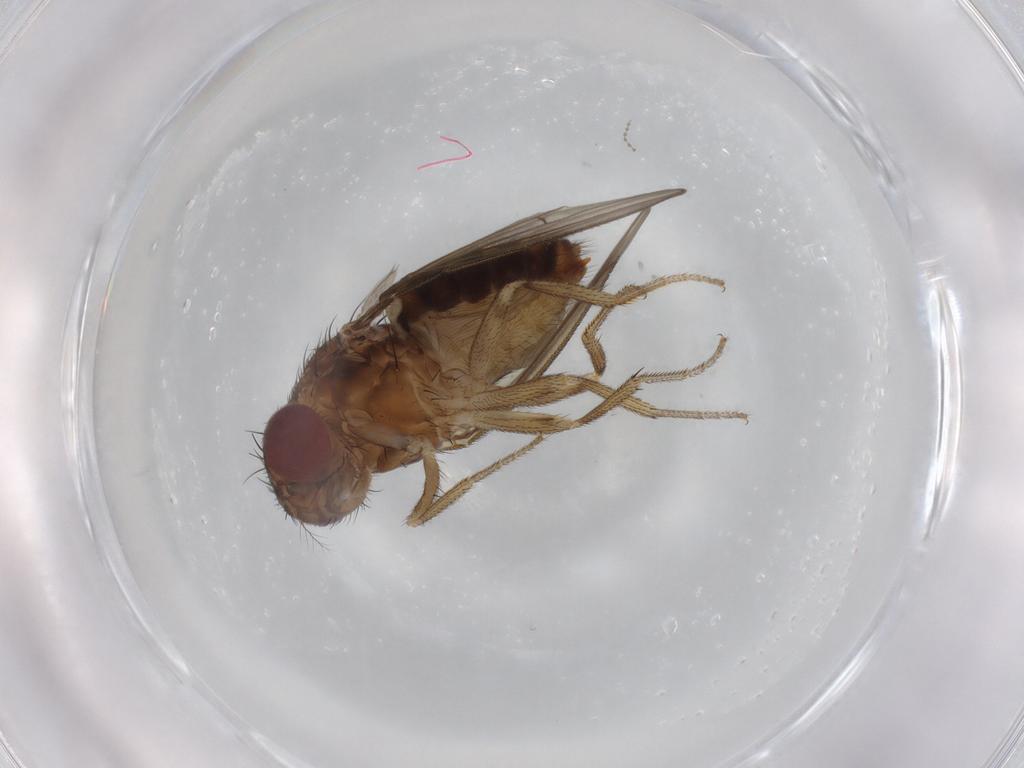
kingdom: Animalia
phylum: Arthropoda
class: Insecta
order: Diptera
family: Drosophilidae
